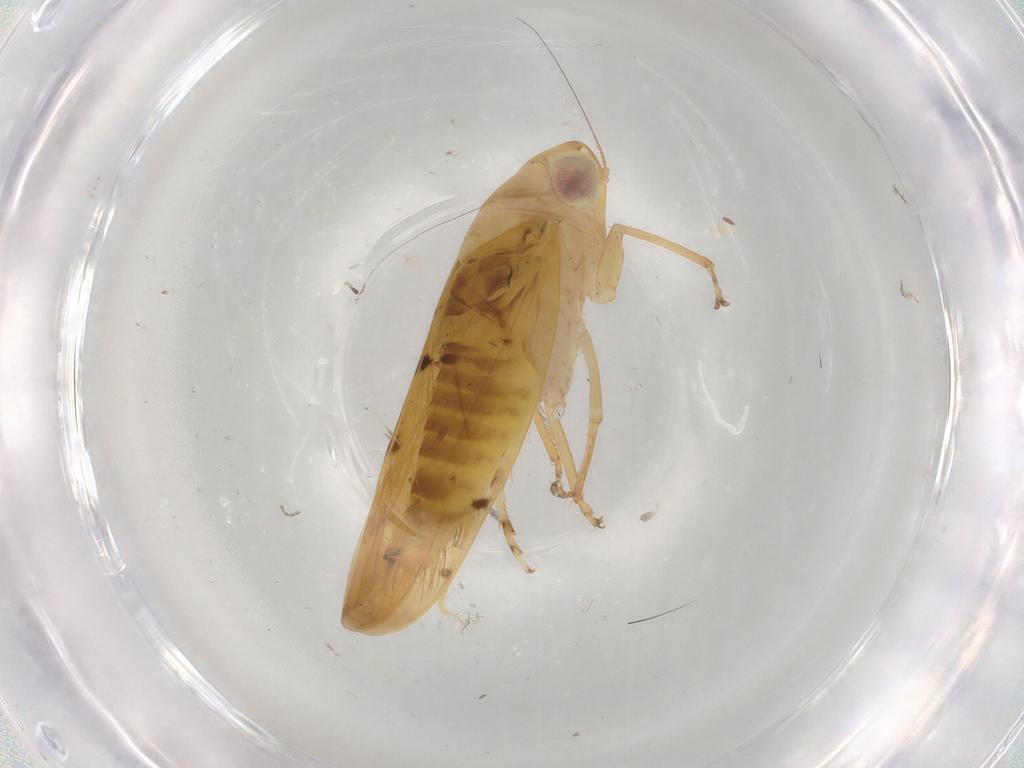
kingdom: Animalia
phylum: Arthropoda
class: Insecta
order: Hemiptera
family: Cicadellidae
